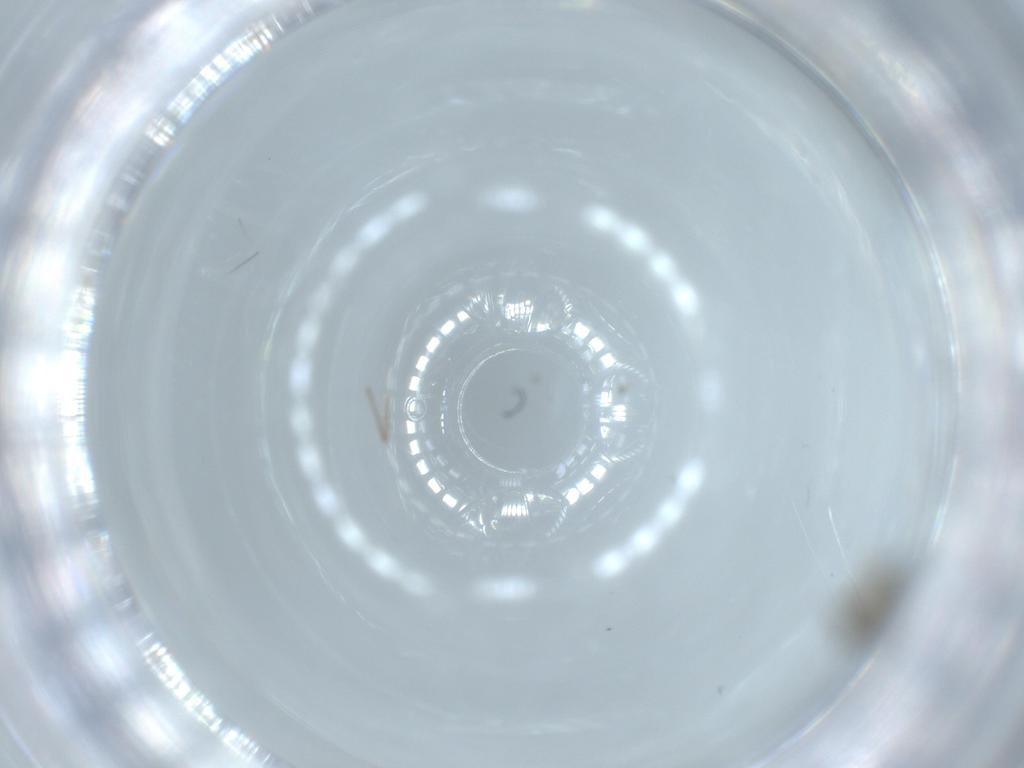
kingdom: Animalia
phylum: Arthropoda
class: Insecta
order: Diptera
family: Chironomidae
